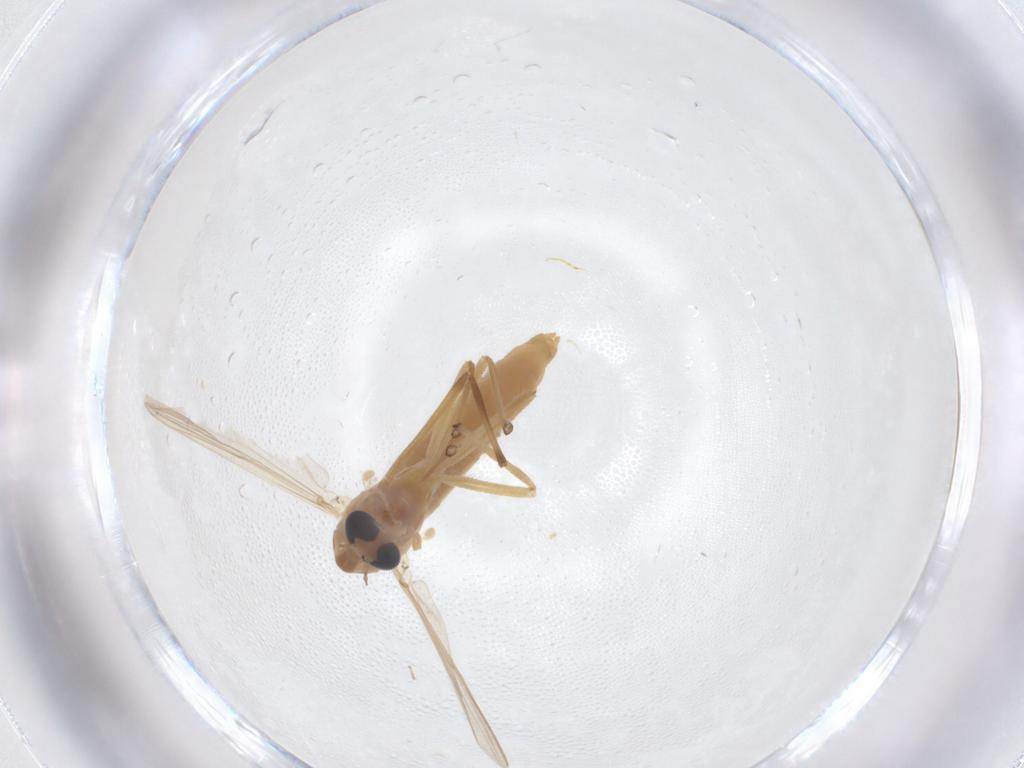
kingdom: Animalia
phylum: Arthropoda
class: Insecta
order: Diptera
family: Chironomidae
